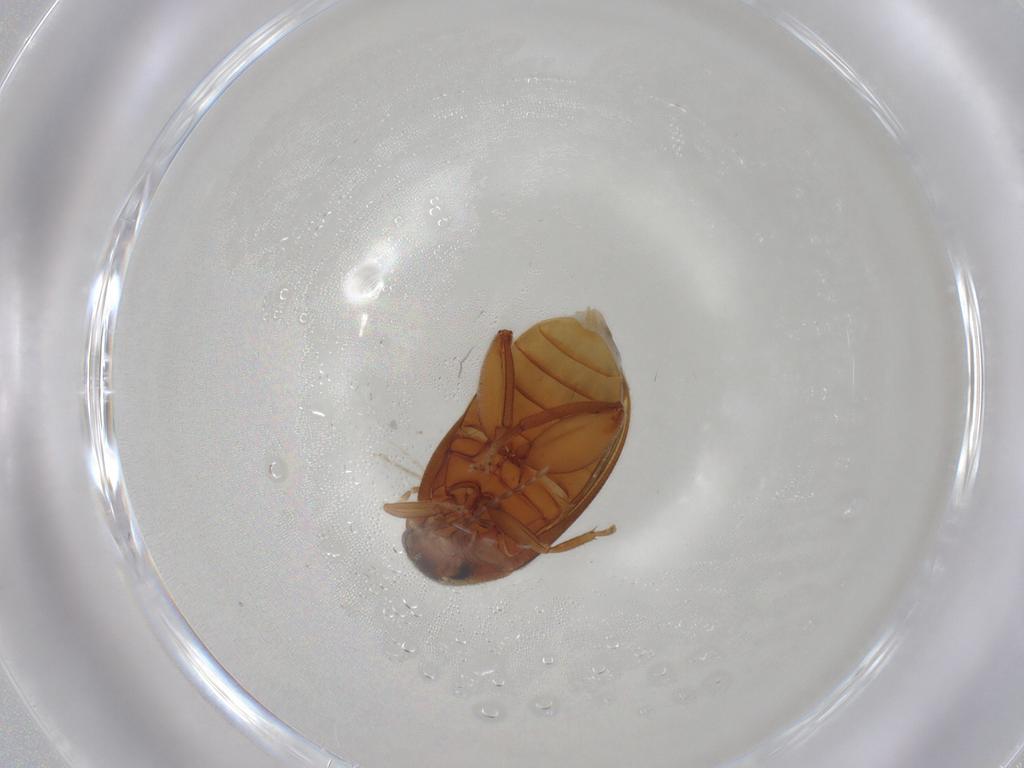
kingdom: Animalia
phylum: Arthropoda
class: Insecta
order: Coleoptera
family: Scirtidae
